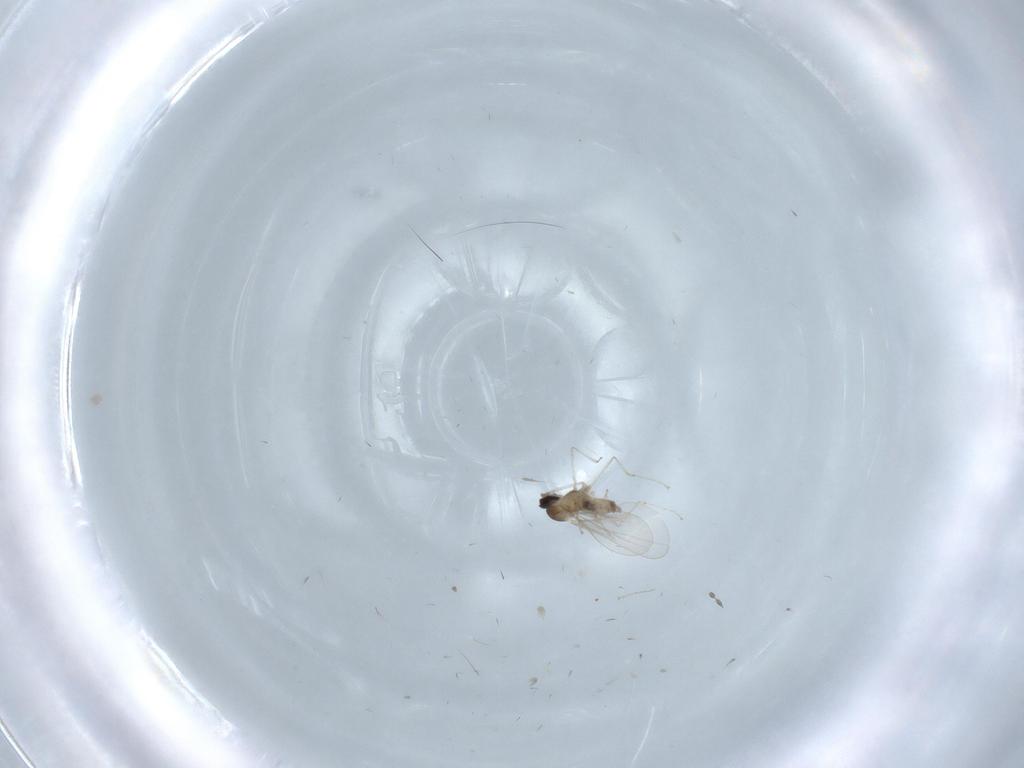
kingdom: Animalia
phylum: Arthropoda
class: Insecta
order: Diptera
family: Cecidomyiidae
